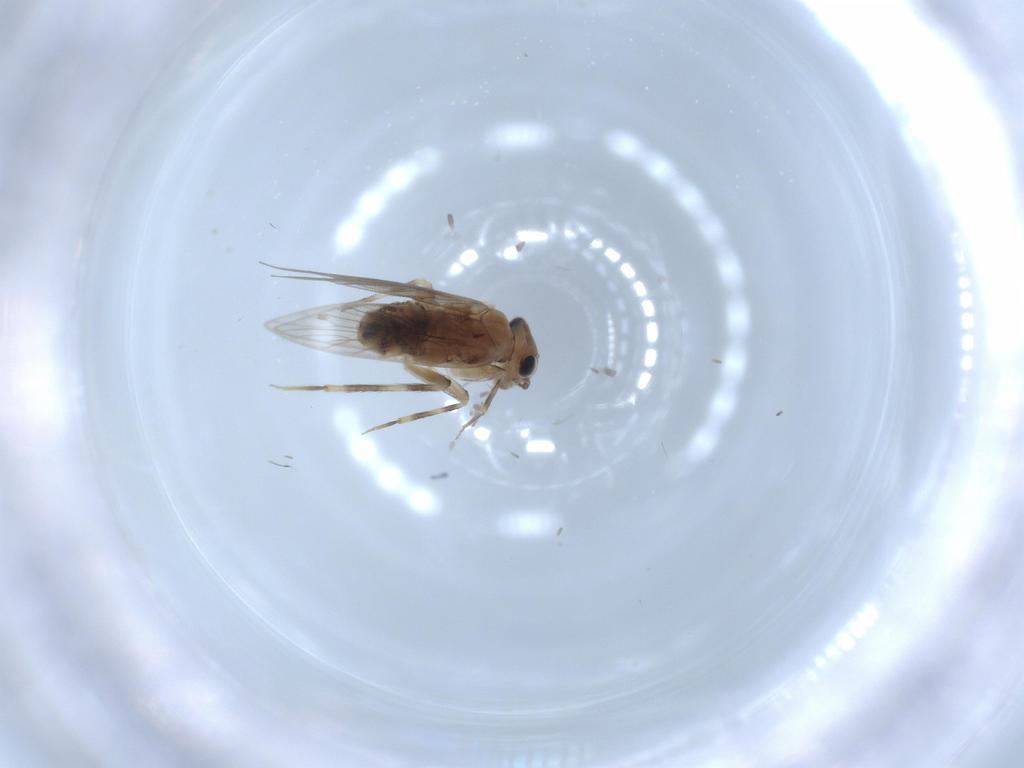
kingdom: Animalia
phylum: Arthropoda
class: Insecta
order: Psocodea
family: Lepidopsocidae
